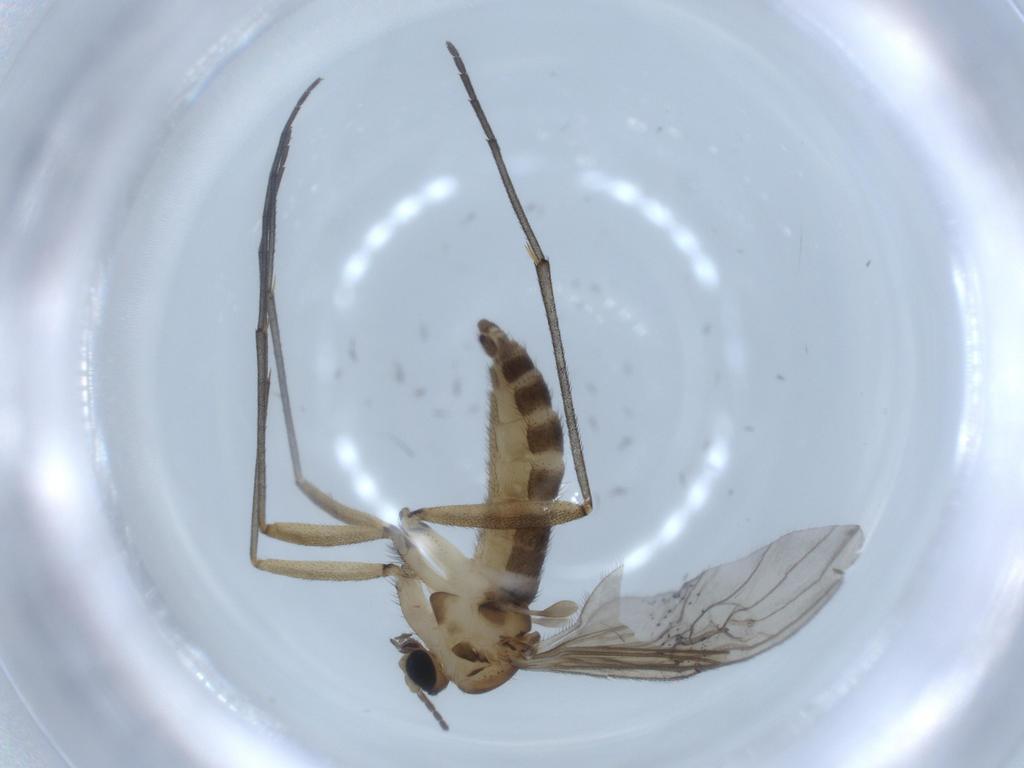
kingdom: Animalia
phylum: Arthropoda
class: Insecta
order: Diptera
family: Sciaridae
